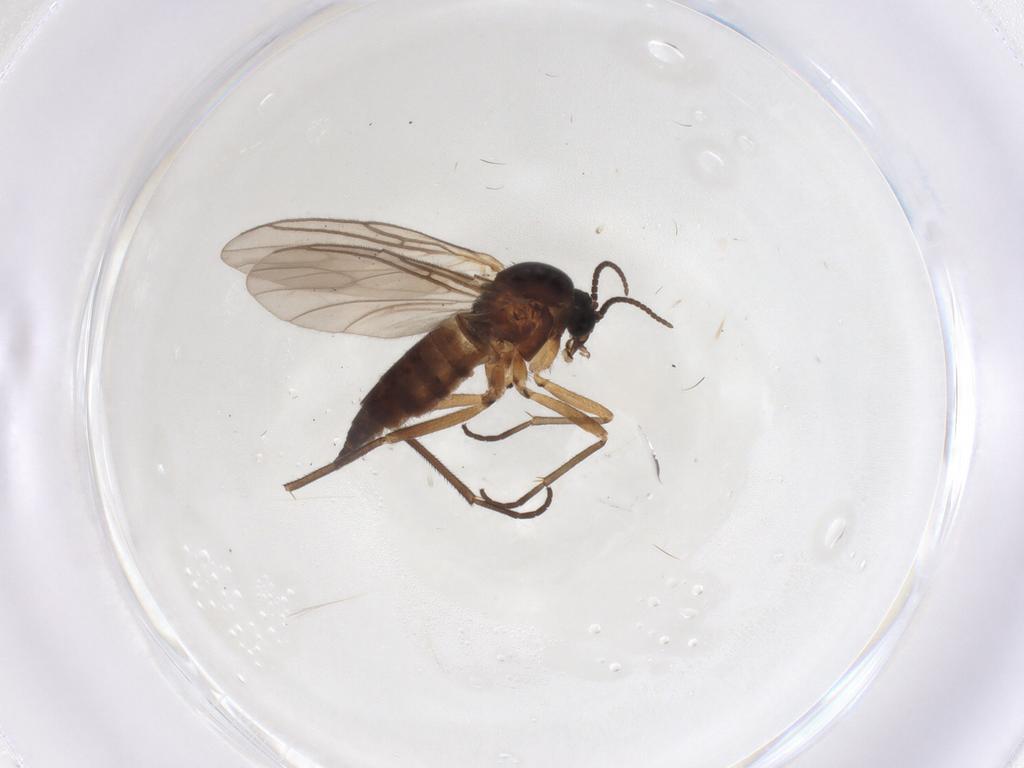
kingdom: Animalia
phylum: Arthropoda
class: Insecta
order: Diptera
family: Sciaridae
